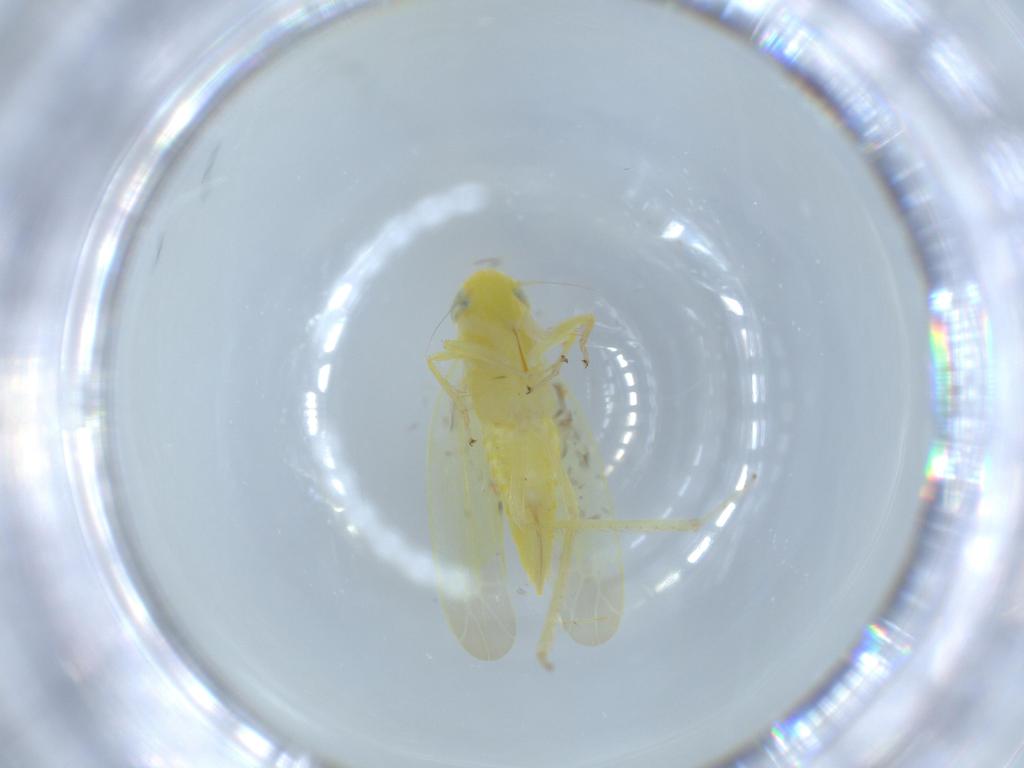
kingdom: Animalia
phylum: Arthropoda
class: Insecta
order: Hemiptera
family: Cicadellidae
